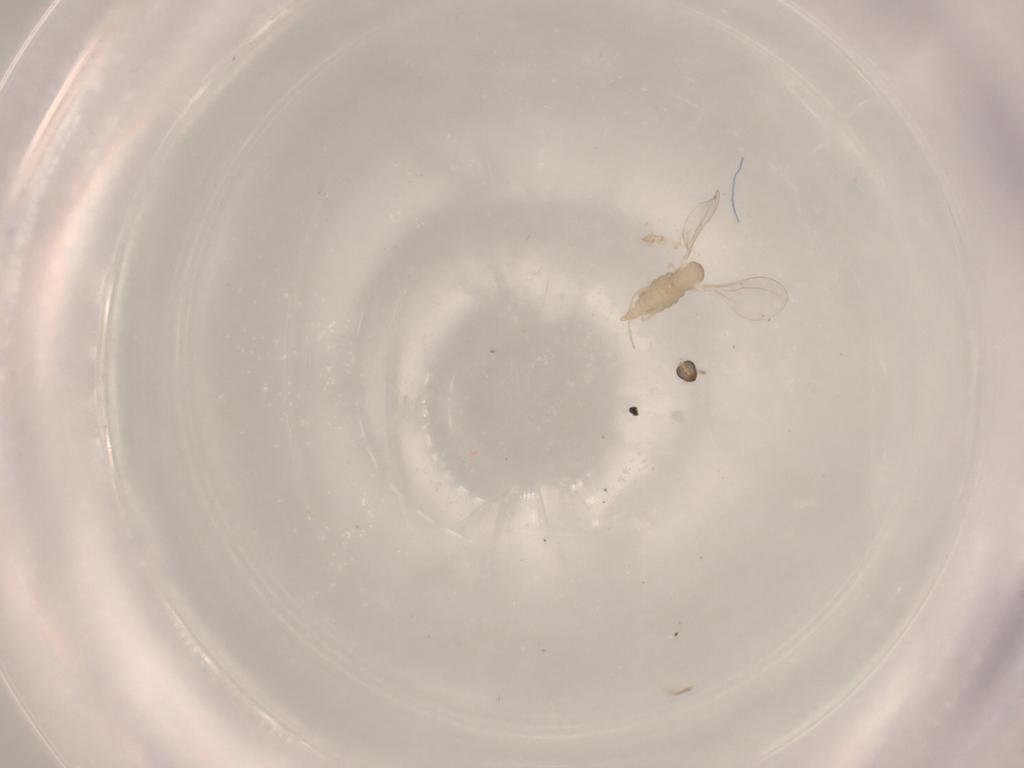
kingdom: Animalia
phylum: Arthropoda
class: Insecta
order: Diptera
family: Cecidomyiidae
